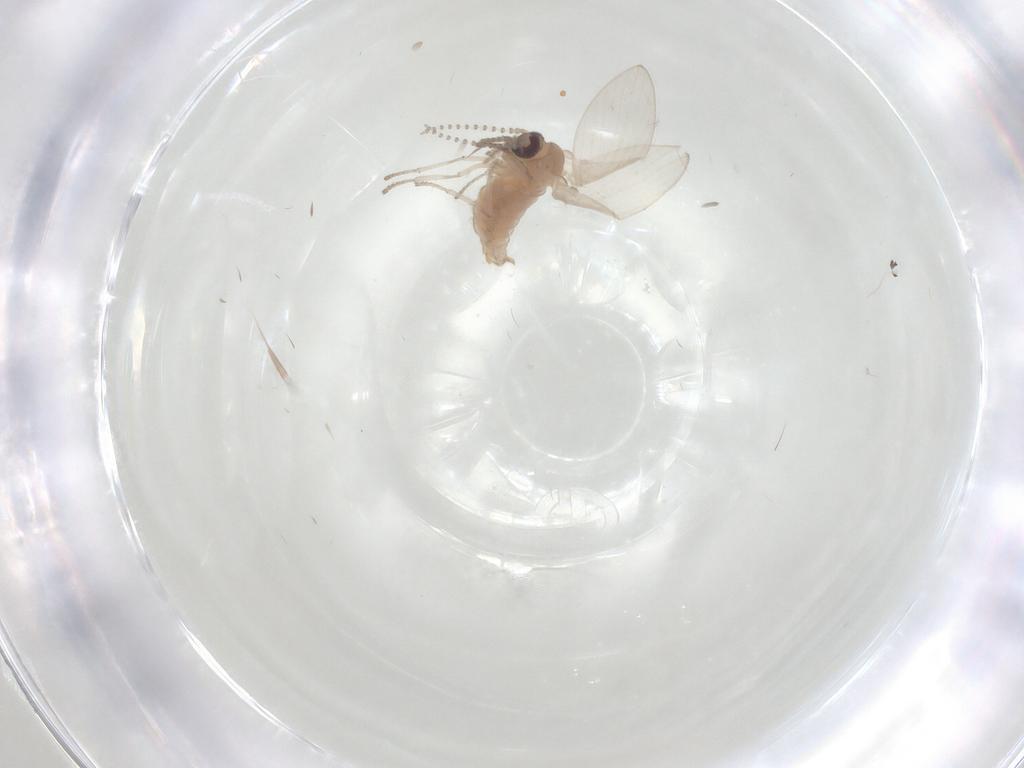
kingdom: Animalia
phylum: Arthropoda
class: Insecta
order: Diptera
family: Psychodidae
